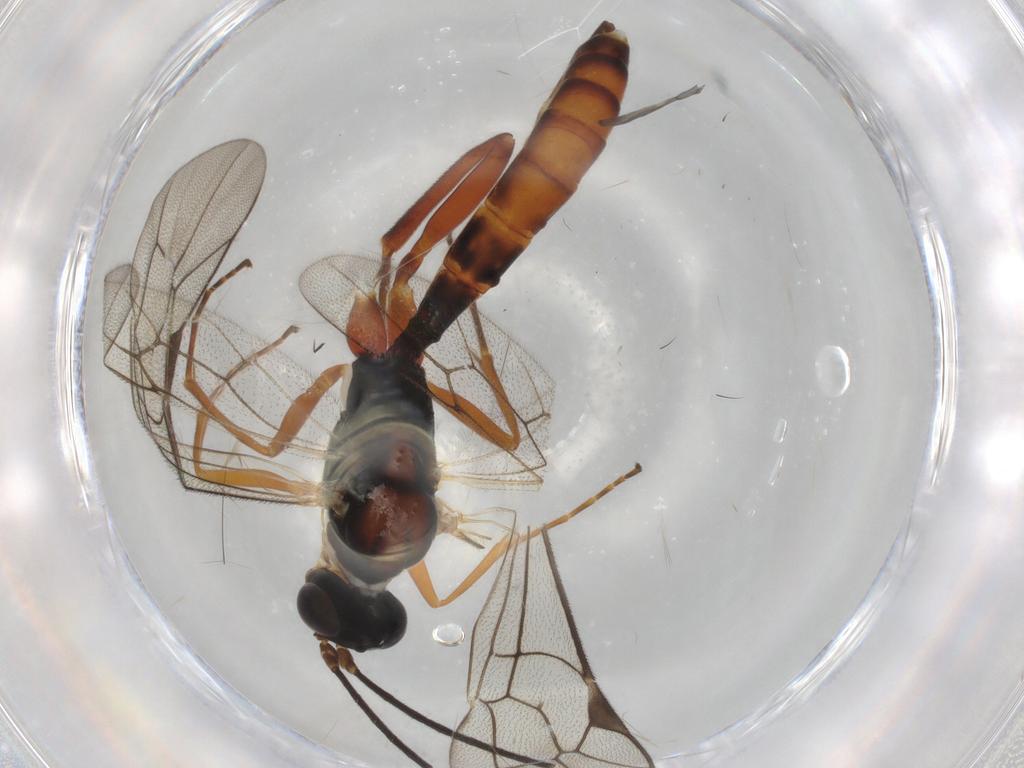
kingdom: Animalia
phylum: Arthropoda
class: Insecta
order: Hymenoptera
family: Ichneumonidae
